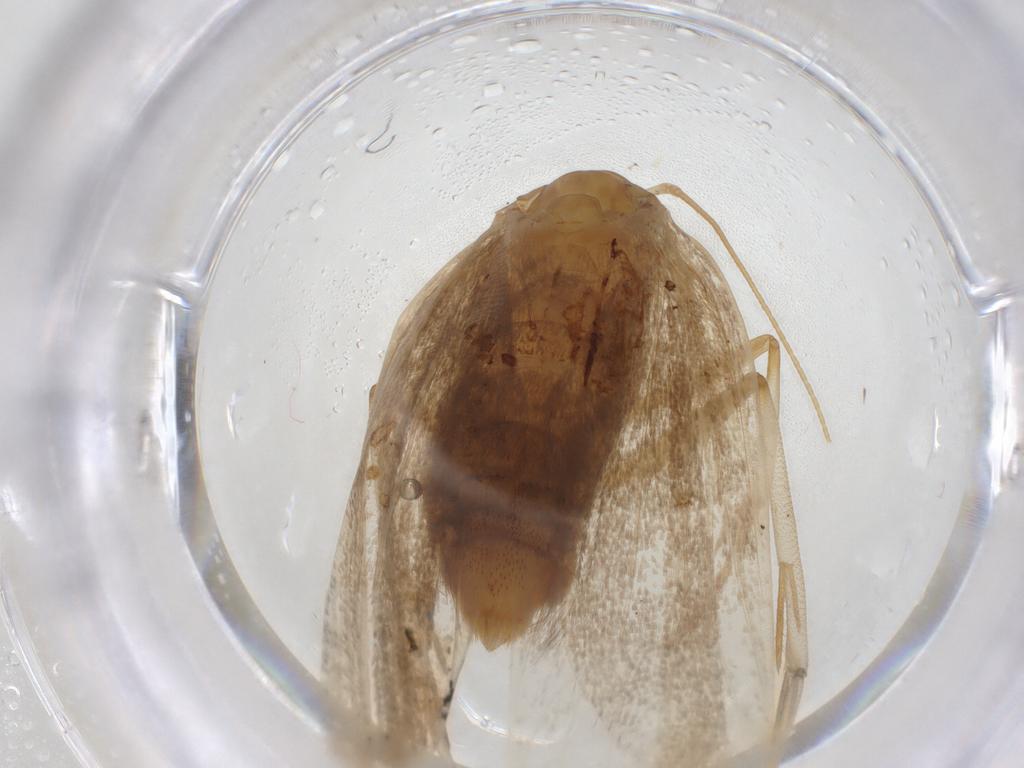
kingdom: Animalia
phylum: Arthropoda
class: Insecta
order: Lepidoptera
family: Lecithoceridae
